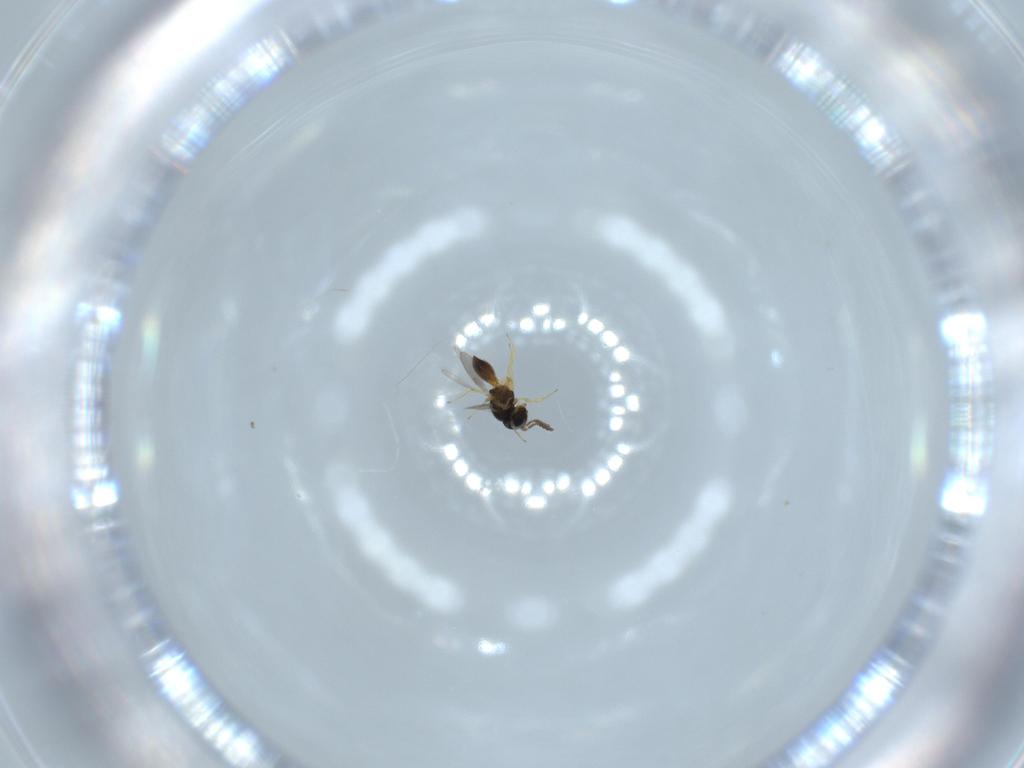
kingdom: Animalia
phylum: Arthropoda
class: Insecta
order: Hymenoptera
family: Scelionidae
